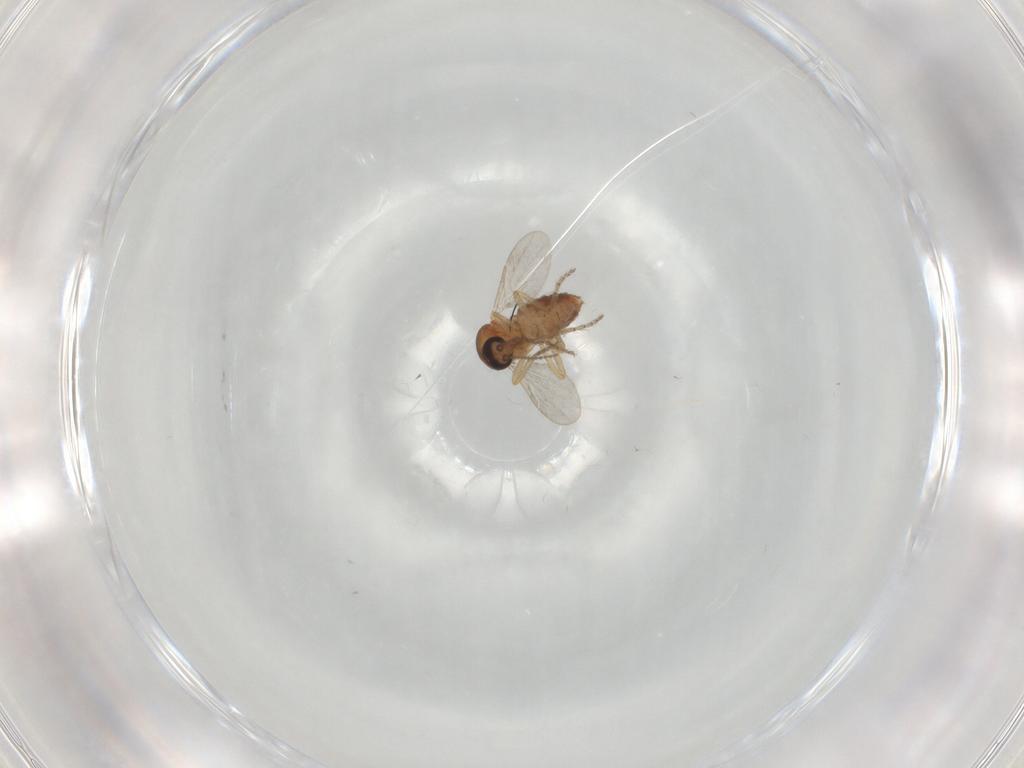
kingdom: Animalia
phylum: Arthropoda
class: Insecta
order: Diptera
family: Ceratopogonidae
